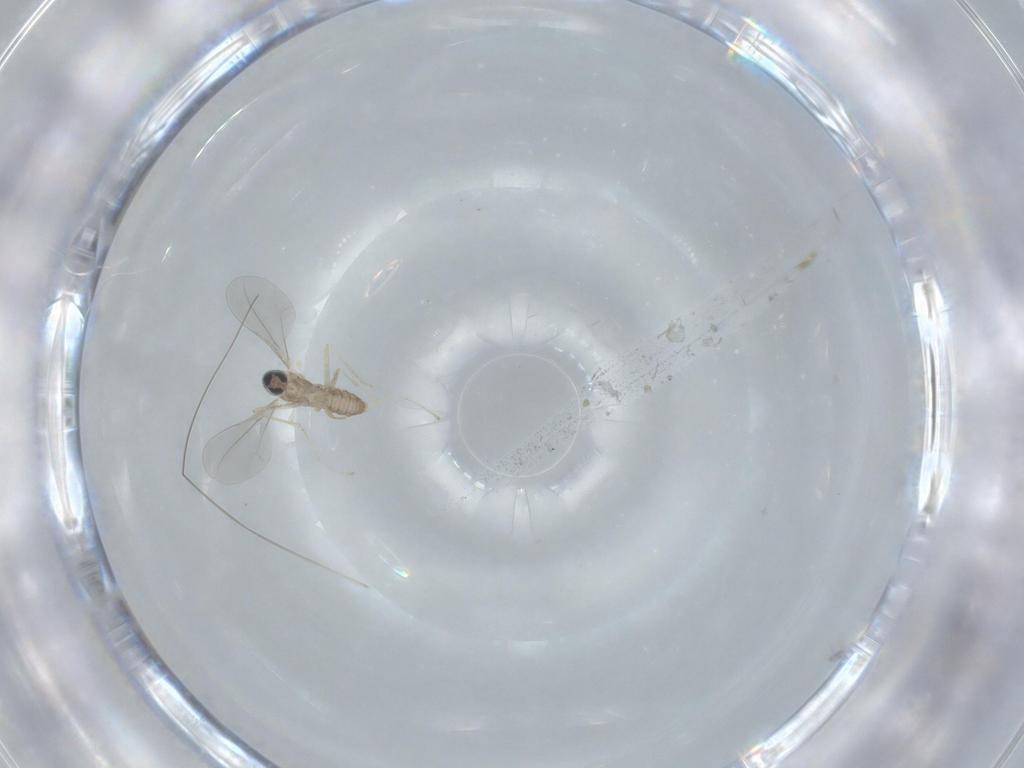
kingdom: Animalia
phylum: Arthropoda
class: Insecta
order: Diptera
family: Cecidomyiidae
